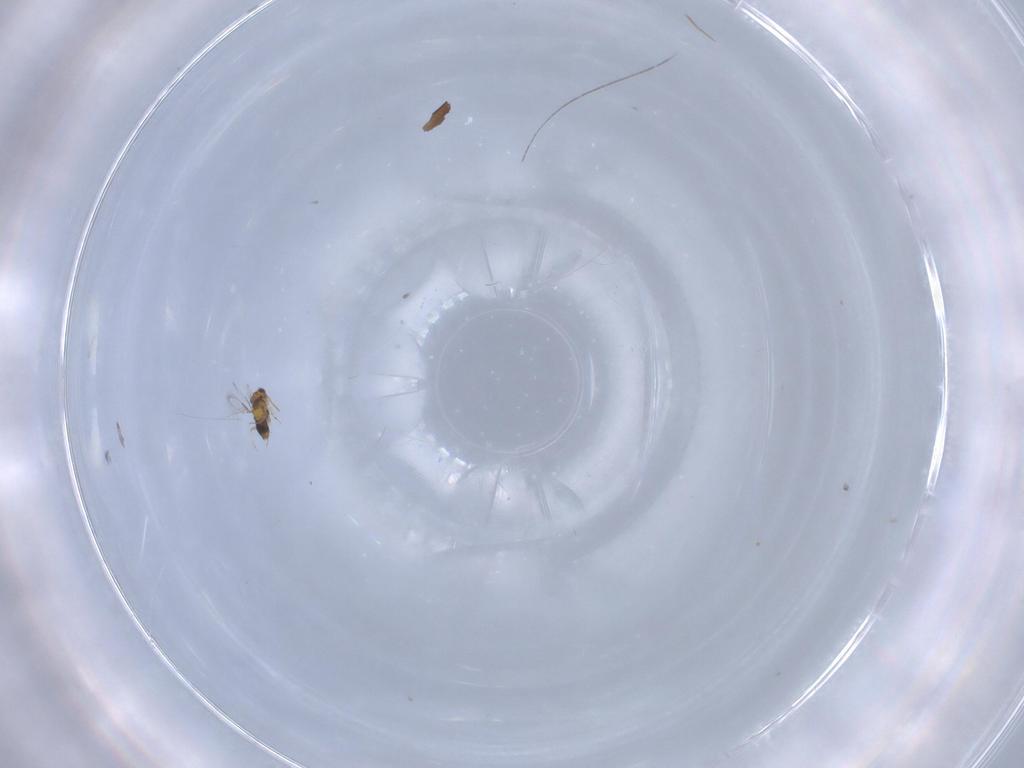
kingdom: Animalia
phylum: Arthropoda
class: Insecta
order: Hymenoptera
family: Aphelinidae
